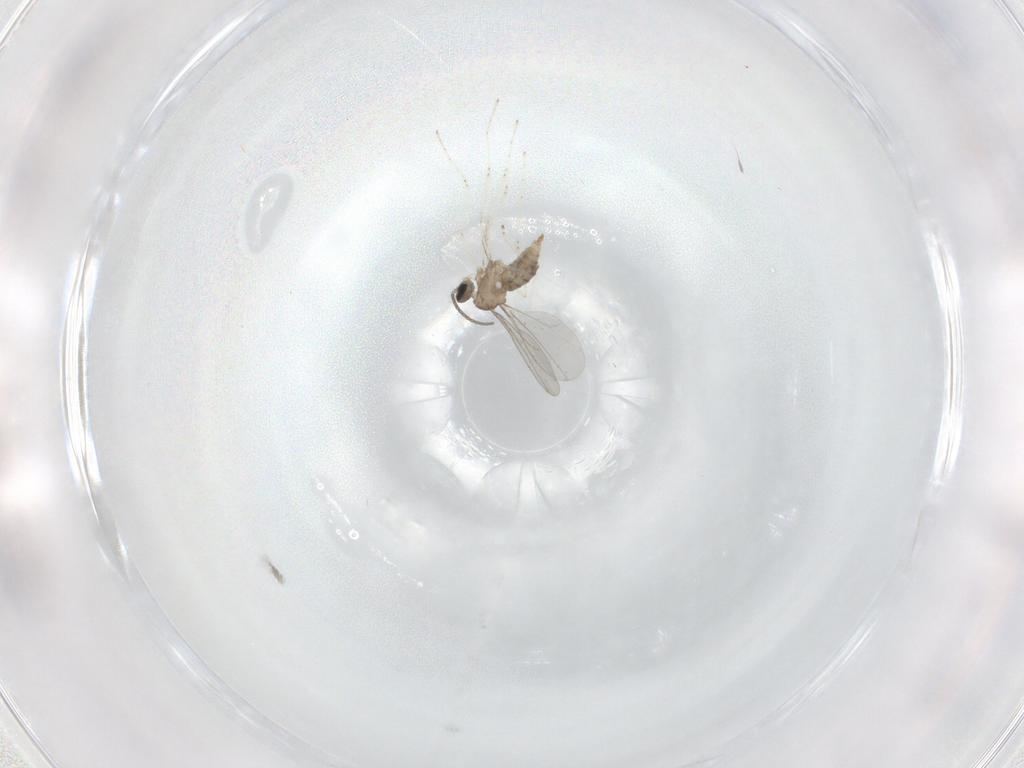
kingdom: Animalia
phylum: Arthropoda
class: Insecta
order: Diptera
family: Cecidomyiidae
